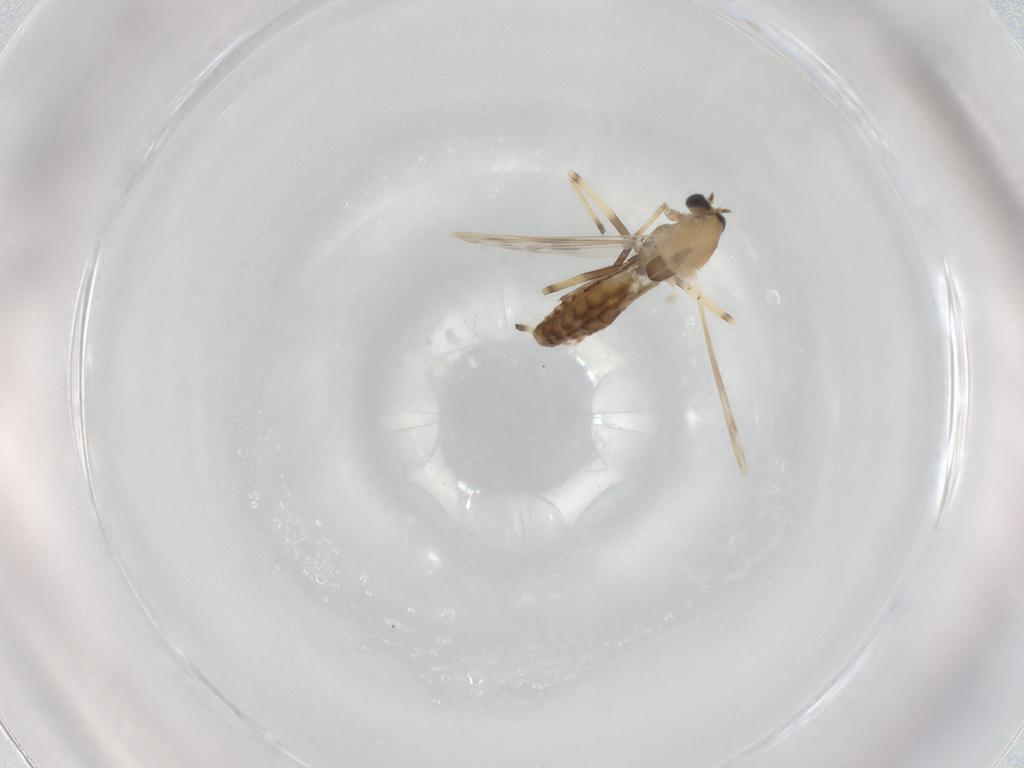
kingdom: Animalia
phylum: Arthropoda
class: Insecta
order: Diptera
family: Chironomidae
